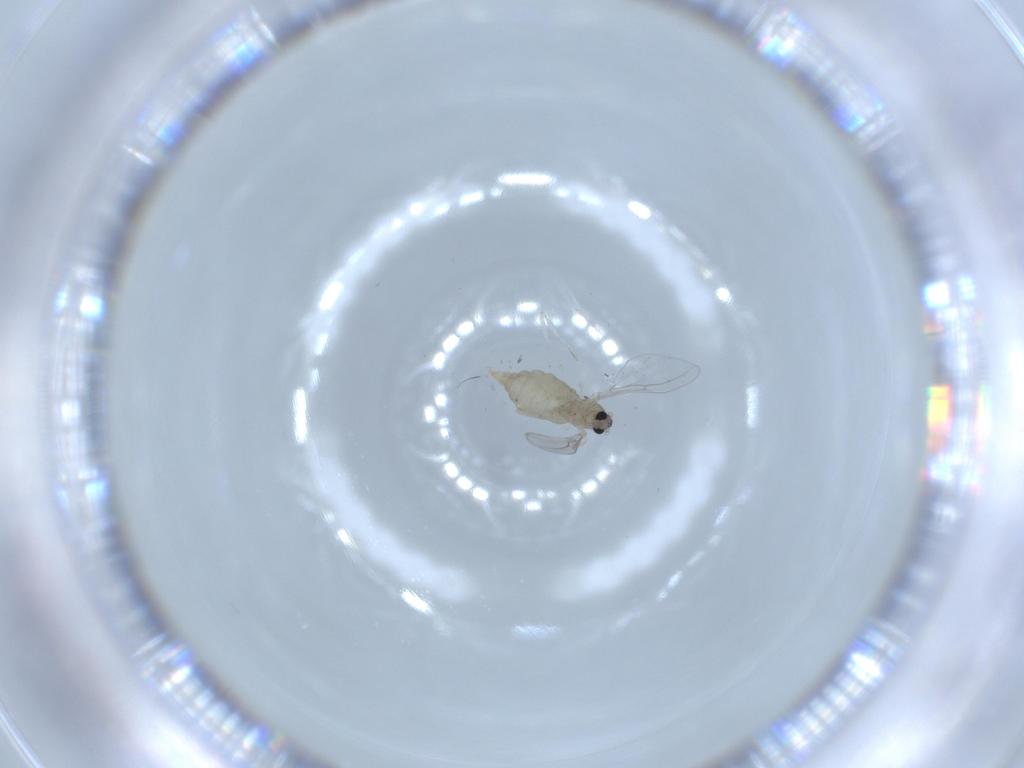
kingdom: Animalia
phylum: Arthropoda
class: Insecta
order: Diptera
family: Cecidomyiidae
